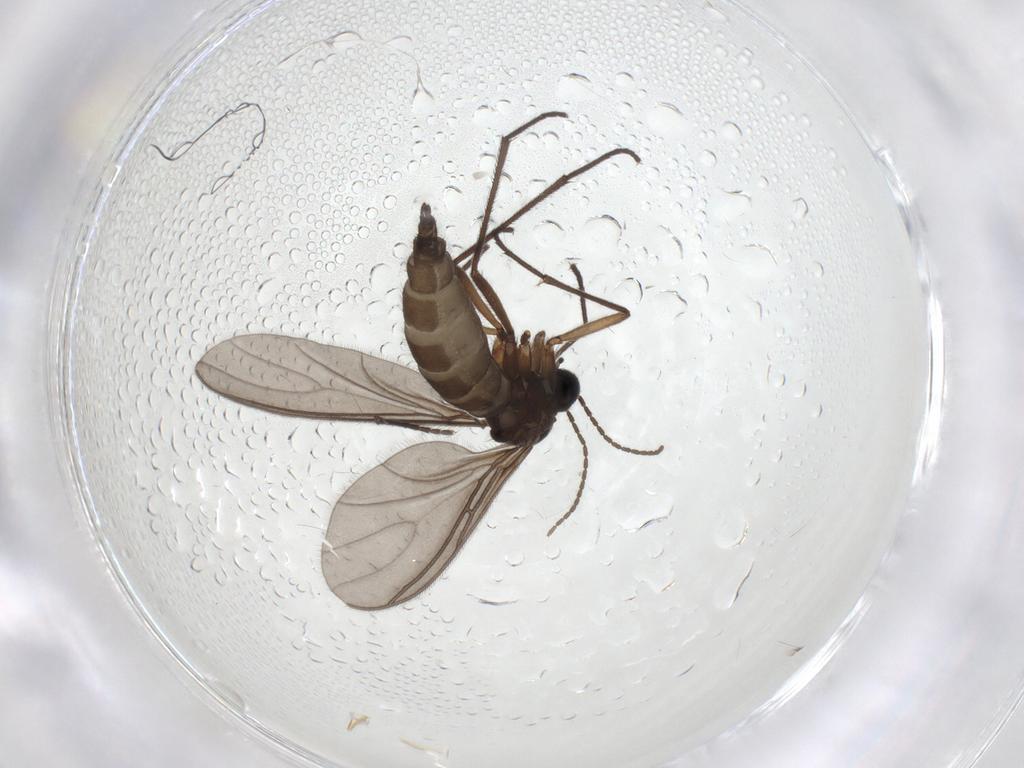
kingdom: Animalia
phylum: Arthropoda
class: Insecta
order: Diptera
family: Sciaridae
